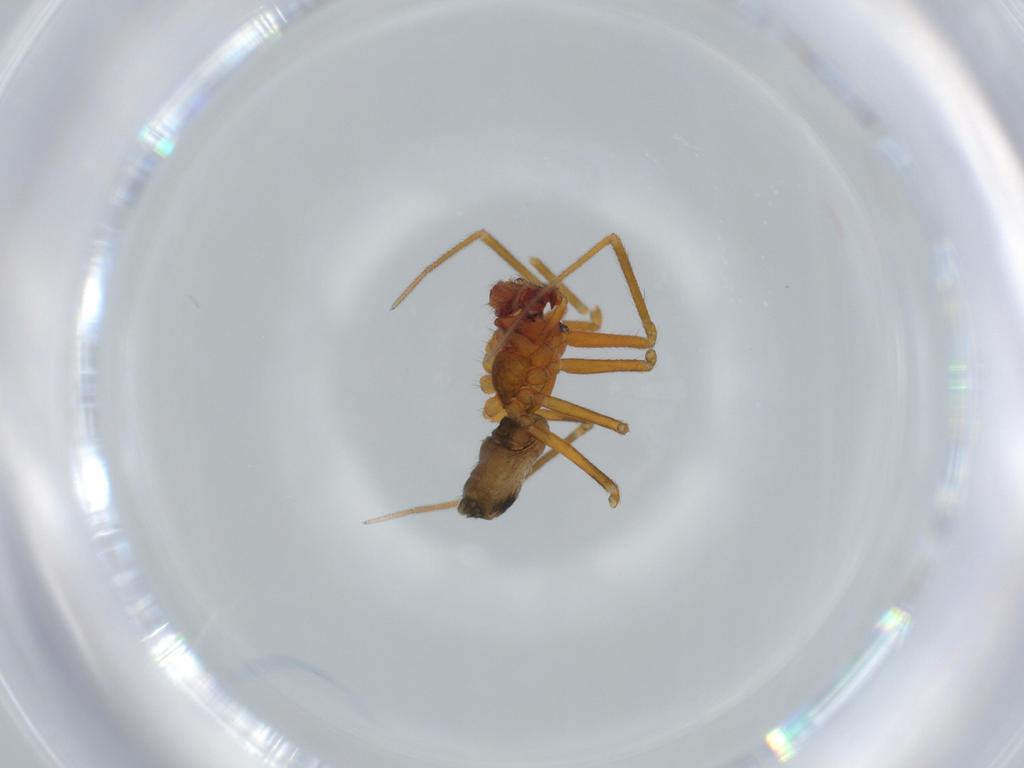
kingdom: Animalia
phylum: Arthropoda
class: Arachnida
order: Araneae
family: Linyphiidae
